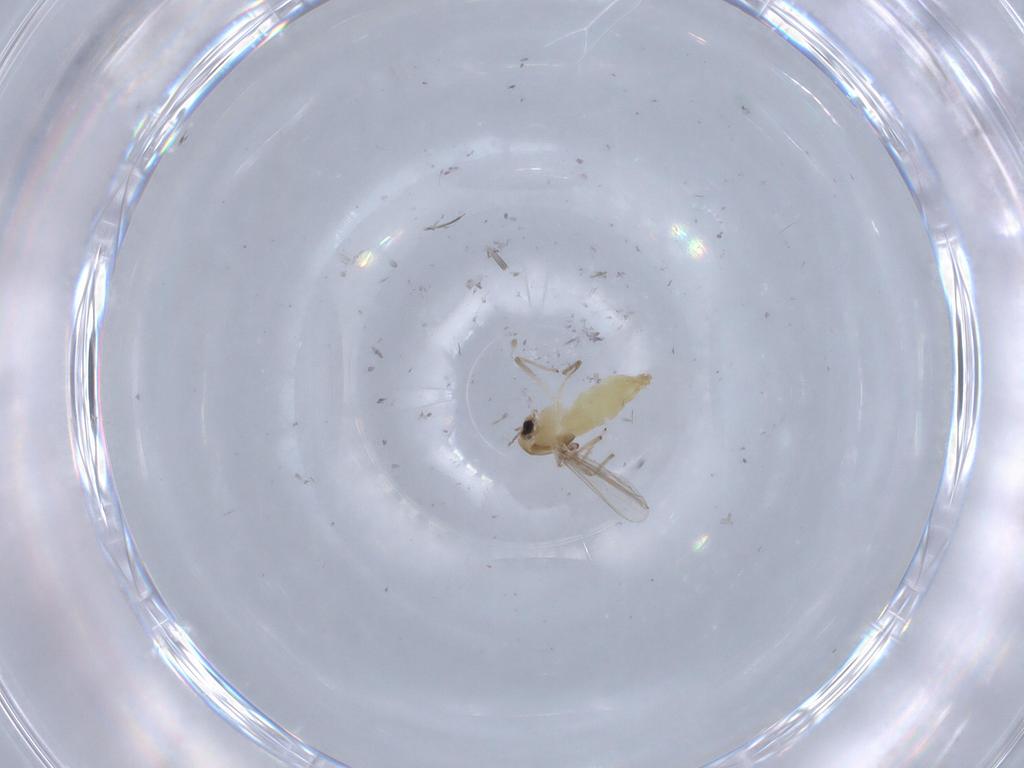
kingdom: Animalia
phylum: Arthropoda
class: Insecta
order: Diptera
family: Chironomidae
